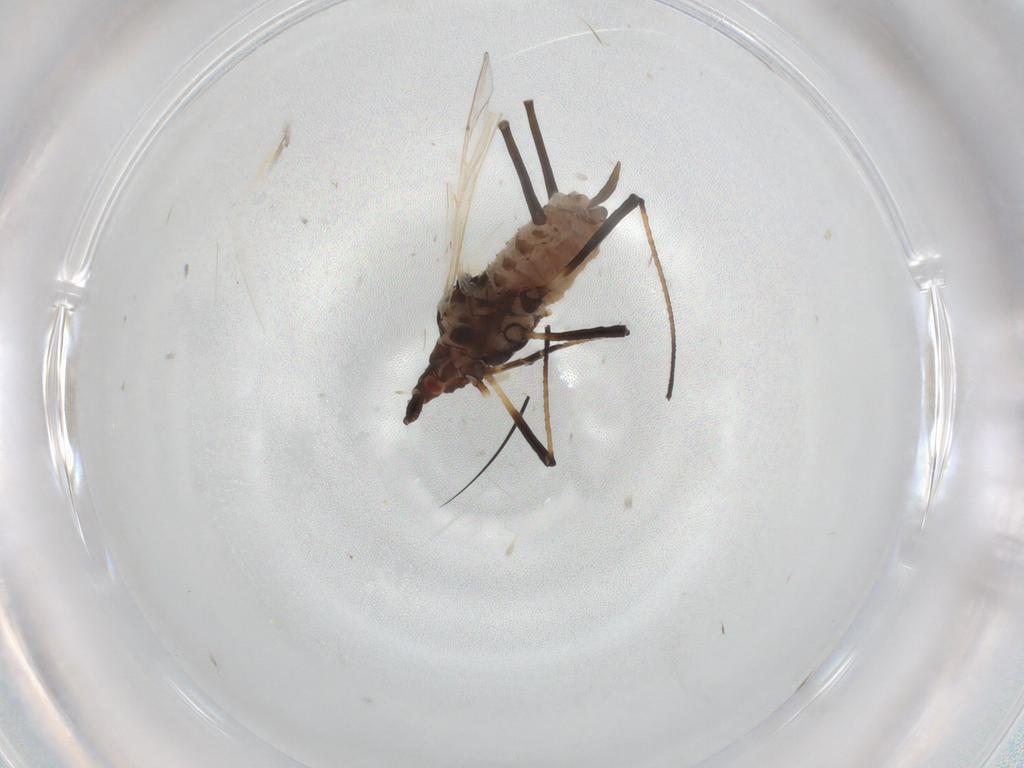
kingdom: Animalia
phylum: Arthropoda
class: Insecta
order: Hemiptera
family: Aphididae
